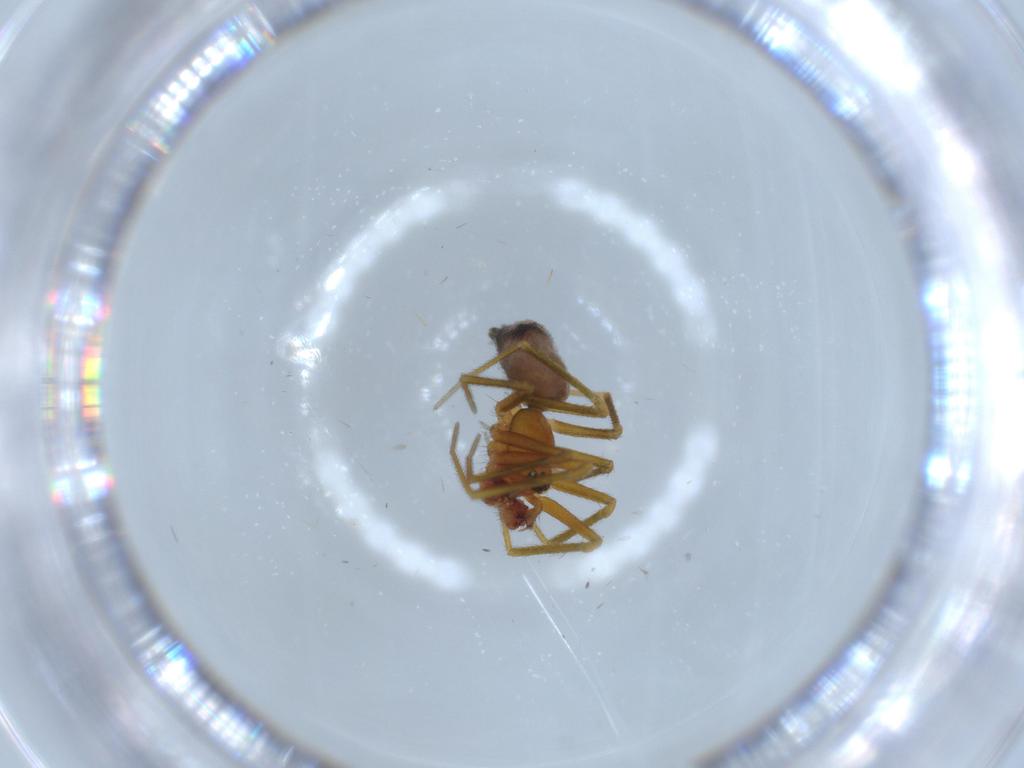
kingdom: Animalia
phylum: Arthropoda
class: Arachnida
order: Araneae
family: Linyphiidae
